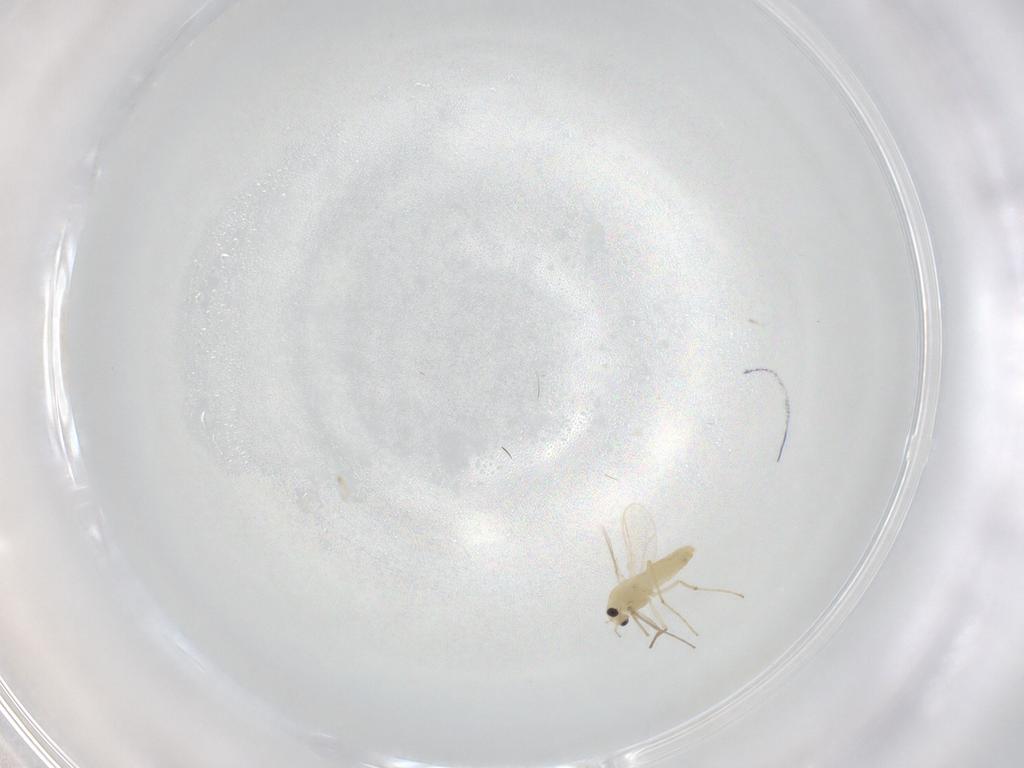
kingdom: Animalia
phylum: Arthropoda
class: Insecta
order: Diptera
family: Chironomidae
